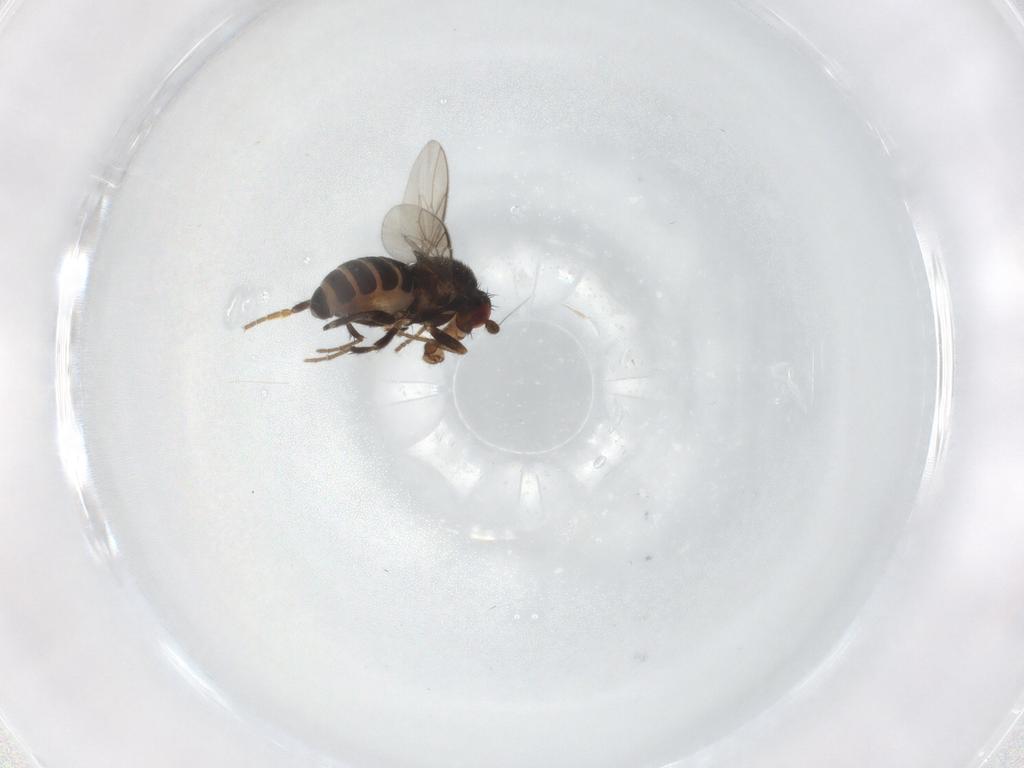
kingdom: Animalia
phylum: Arthropoda
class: Insecta
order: Diptera
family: Sphaeroceridae
